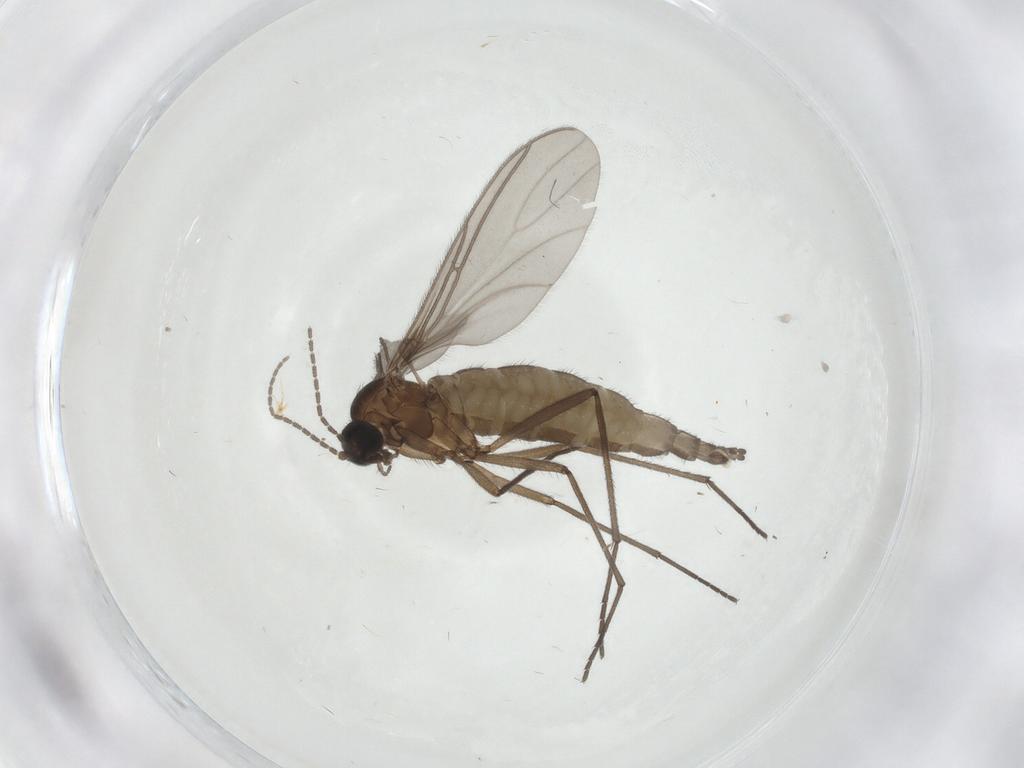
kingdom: Animalia
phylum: Arthropoda
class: Insecta
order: Diptera
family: Sciaridae
